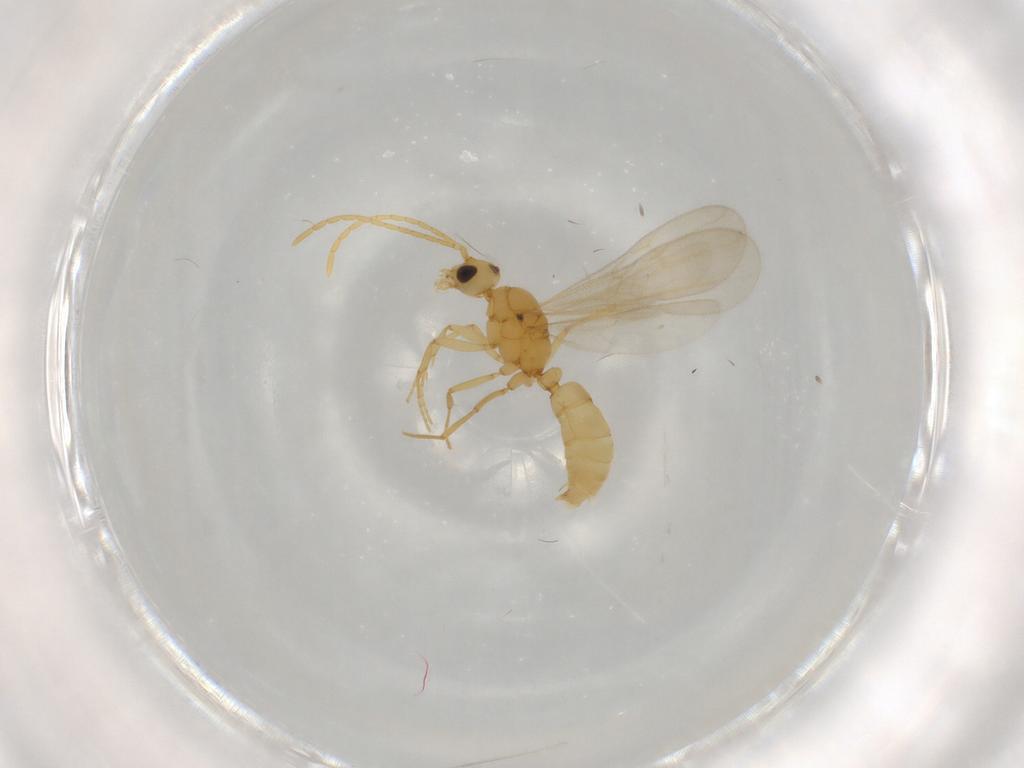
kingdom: Animalia
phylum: Arthropoda
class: Insecta
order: Hymenoptera
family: Formicidae
